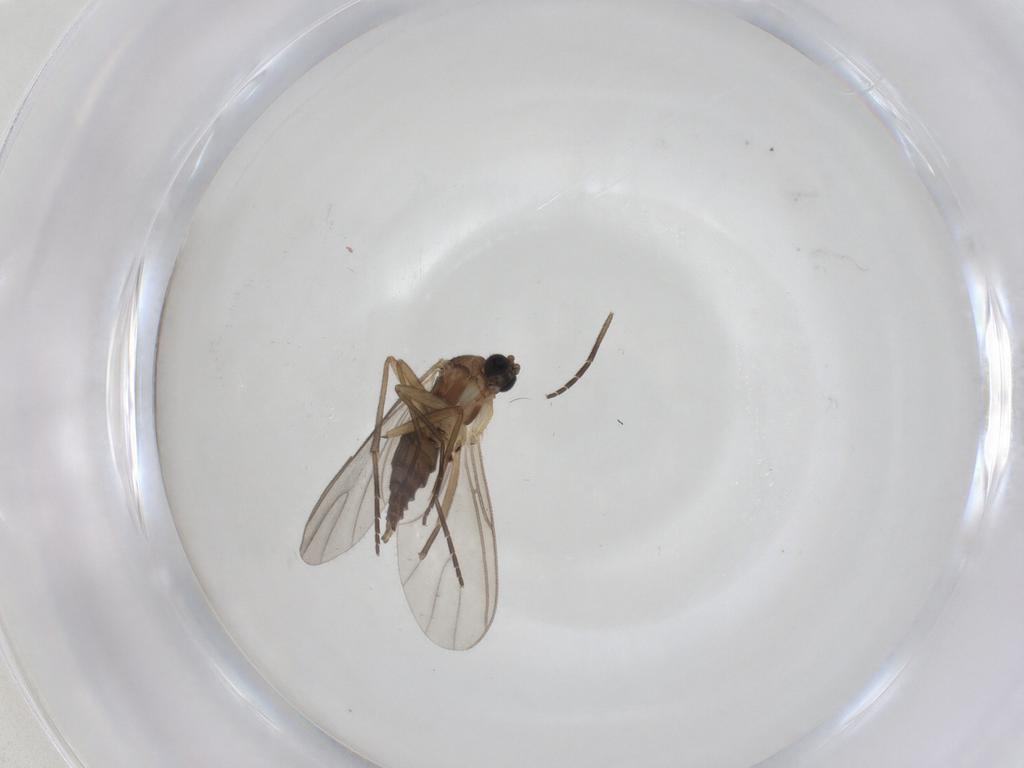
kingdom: Animalia
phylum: Arthropoda
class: Insecta
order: Diptera
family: Sciaridae
